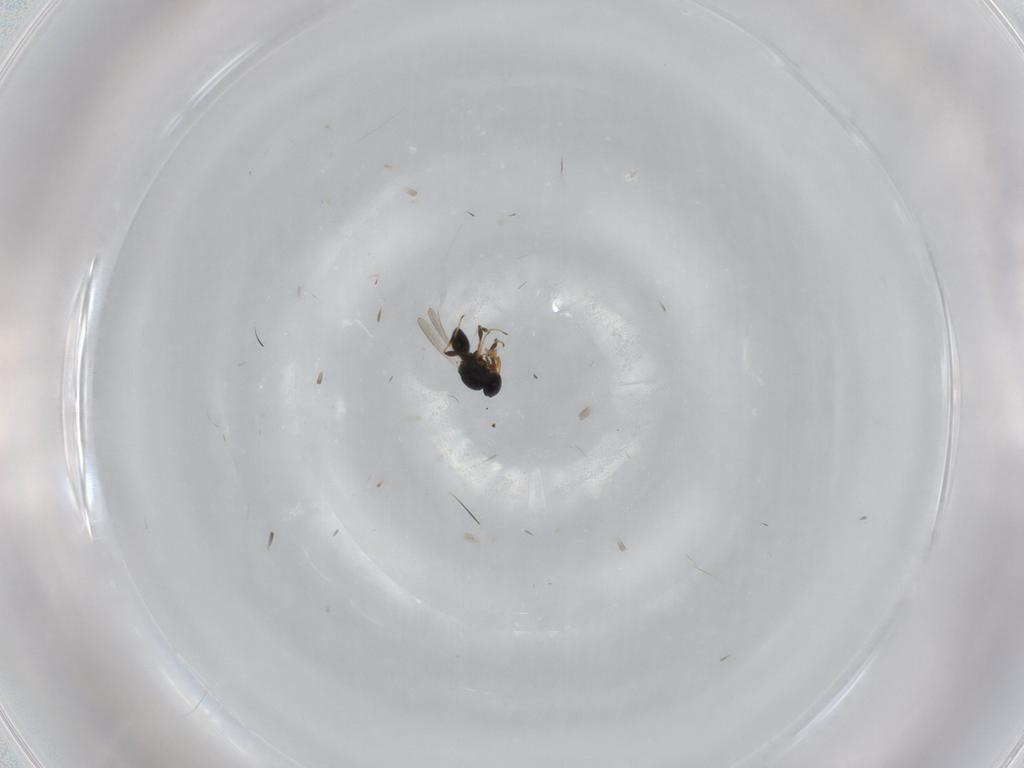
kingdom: Animalia
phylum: Arthropoda
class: Insecta
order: Hymenoptera
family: Platygastridae
